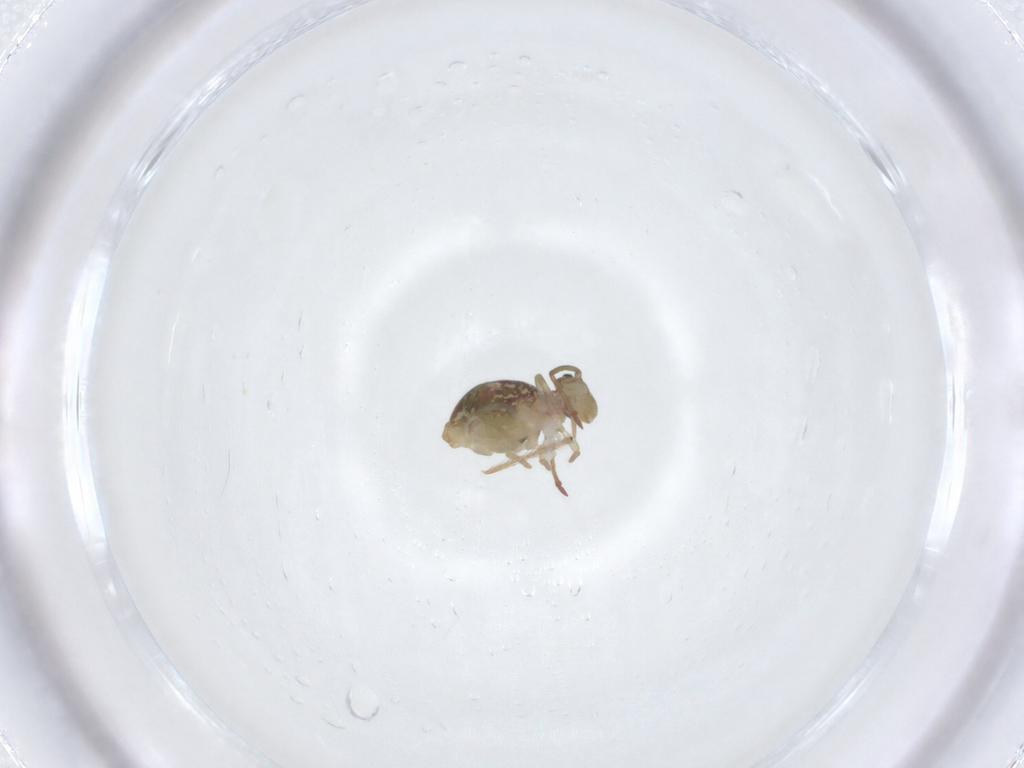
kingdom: Animalia
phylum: Arthropoda
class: Collembola
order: Symphypleona
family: Dicyrtomidae
